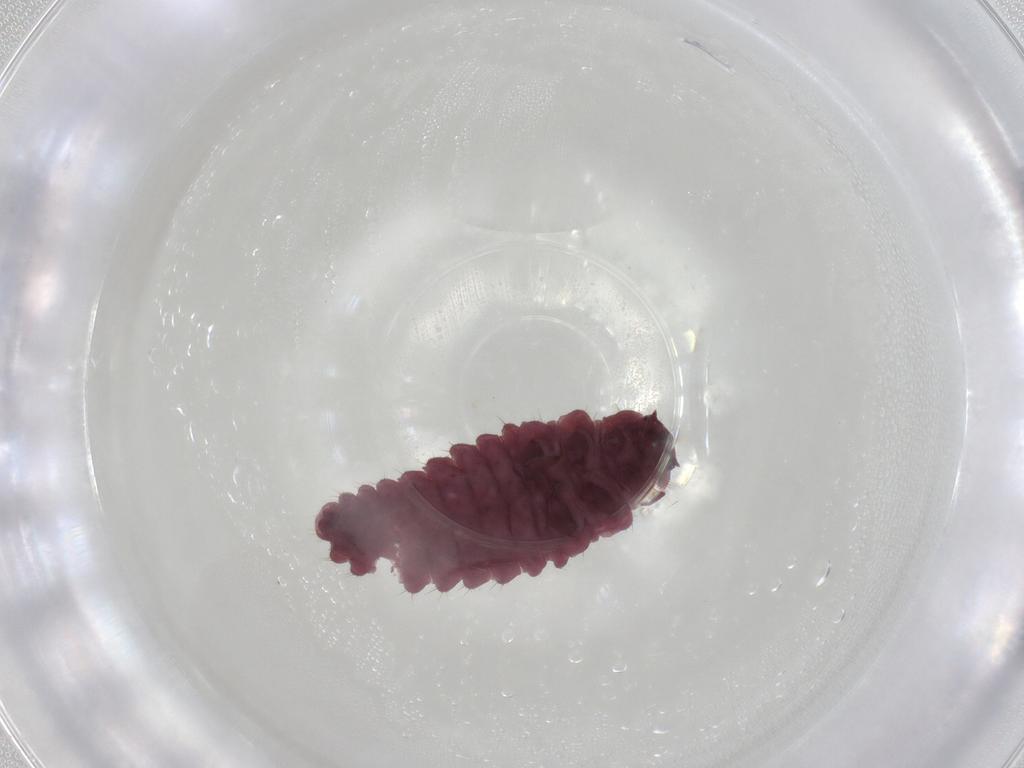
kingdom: Animalia
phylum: Arthropoda
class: Insecta
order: Coleoptera
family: Coccinellidae
